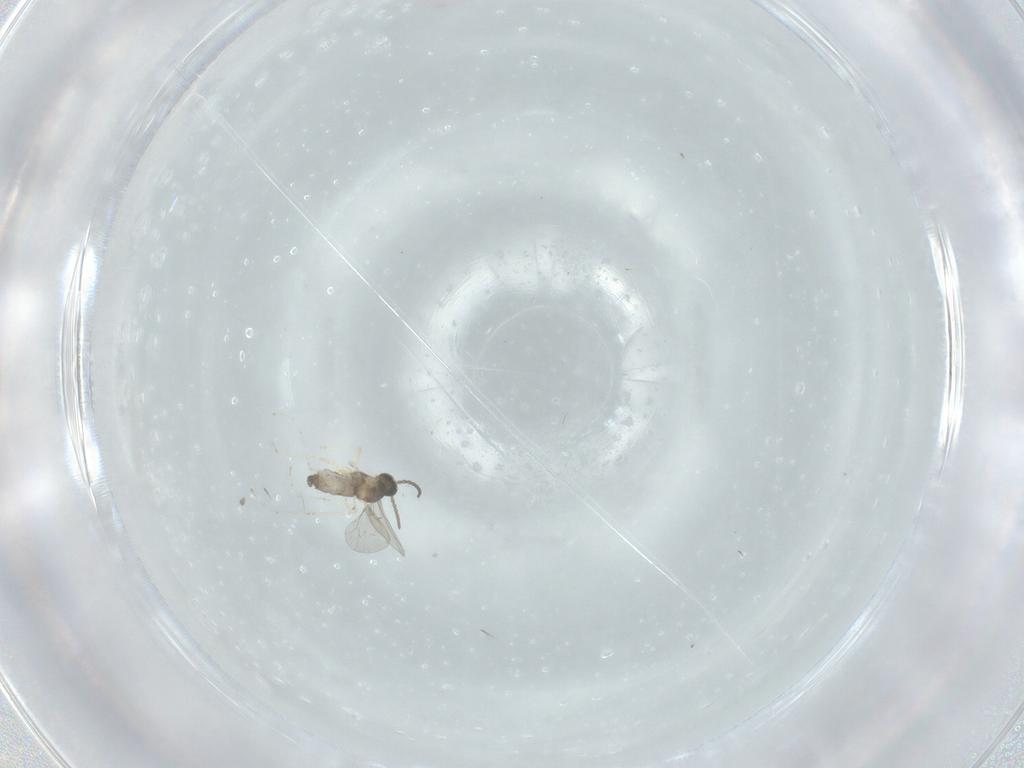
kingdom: Animalia
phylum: Arthropoda
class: Insecta
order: Diptera
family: Cecidomyiidae
